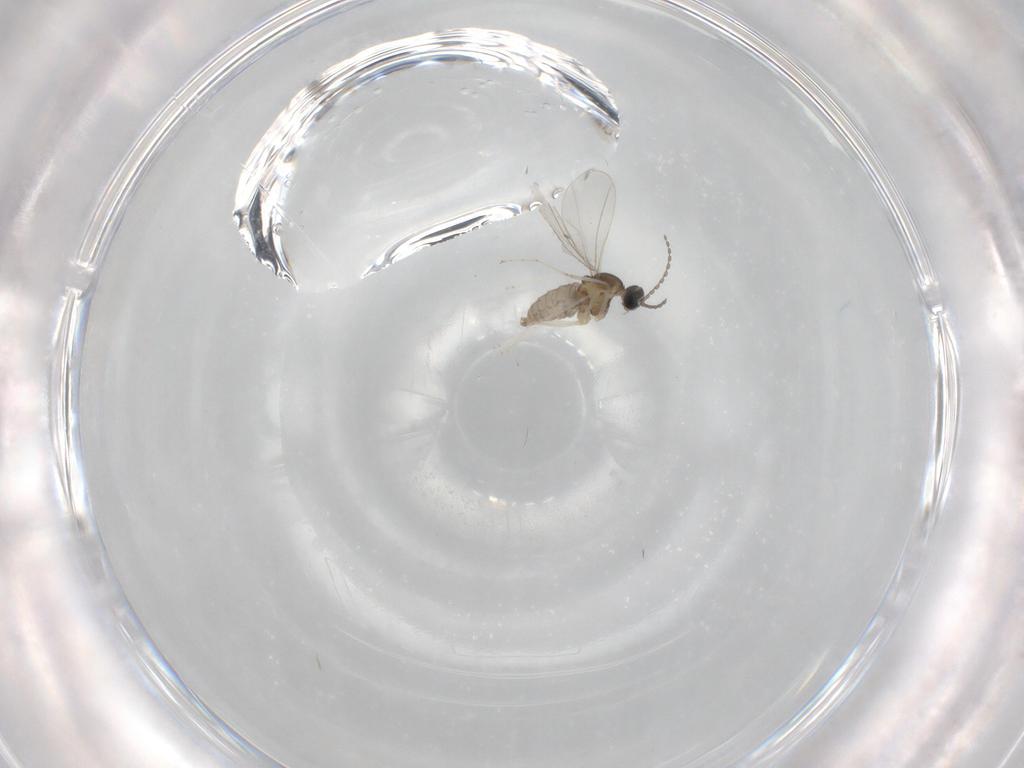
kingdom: Animalia
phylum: Arthropoda
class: Insecta
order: Diptera
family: Cecidomyiidae
